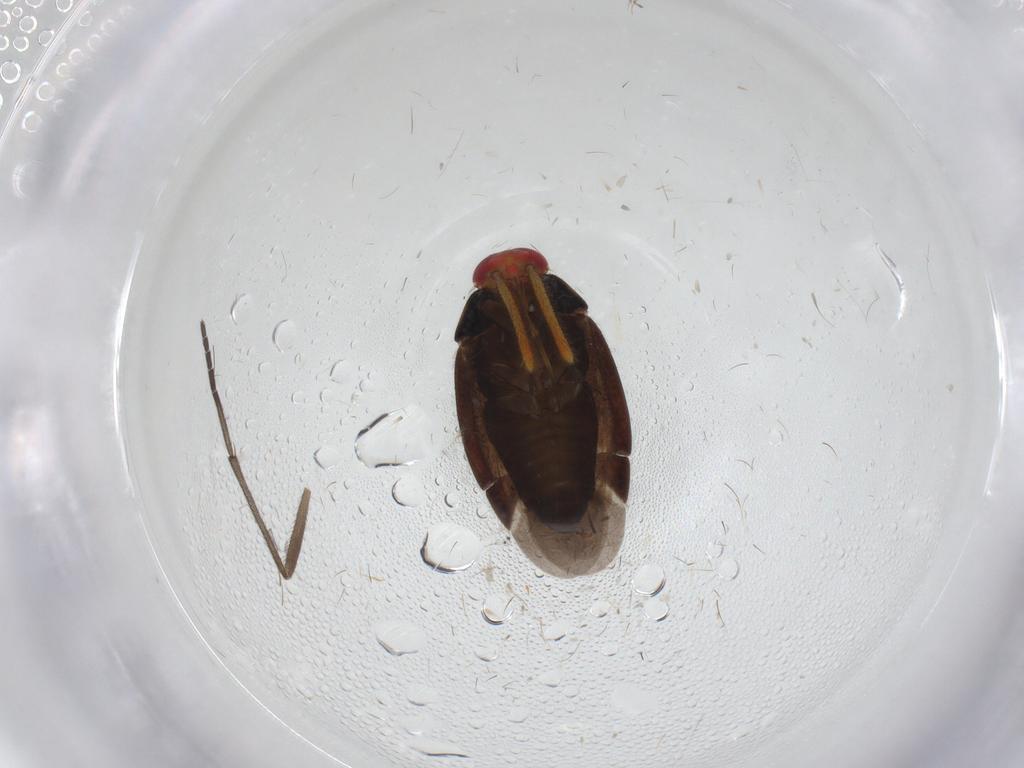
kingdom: Animalia
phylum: Arthropoda
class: Insecta
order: Hemiptera
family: Miridae
